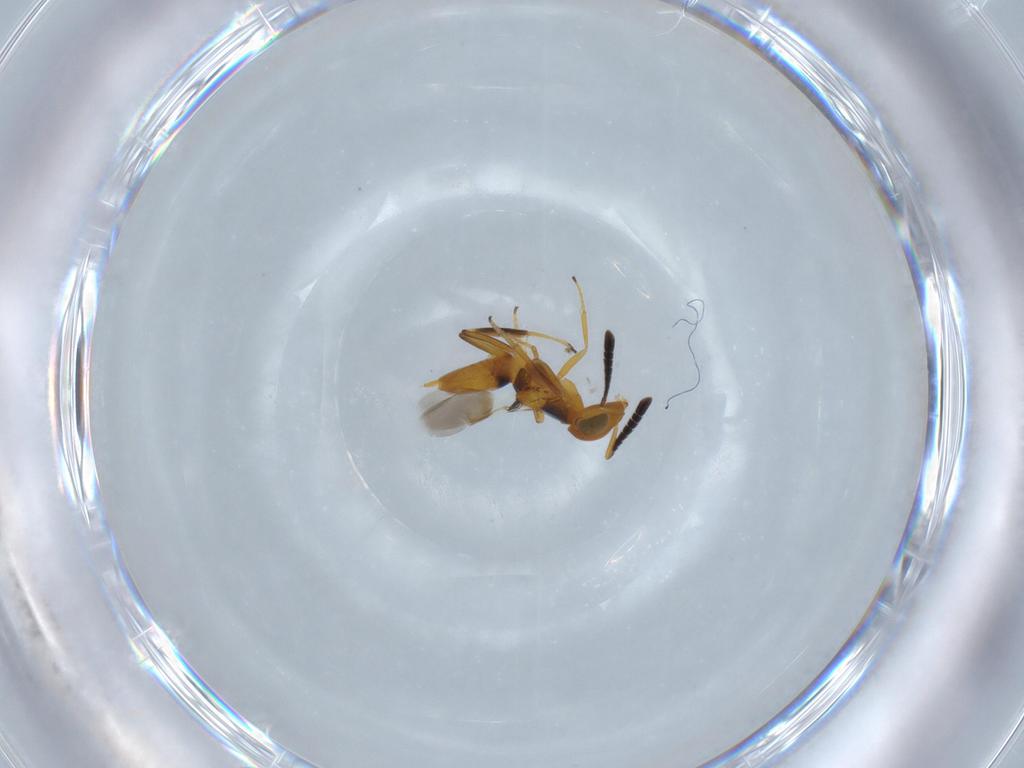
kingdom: Animalia
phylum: Arthropoda
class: Insecta
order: Hymenoptera
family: Encyrtidae
